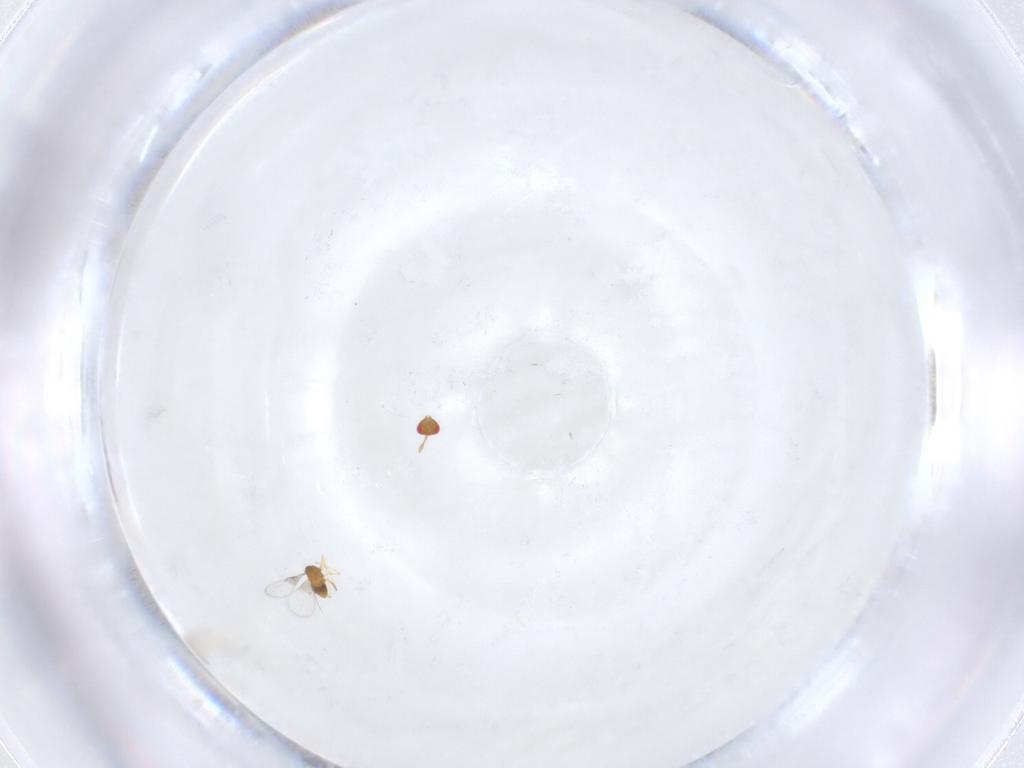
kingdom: Animalia
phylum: Arthropoda
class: Insecta
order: Hymenoptera
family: Trichogrammatidae
